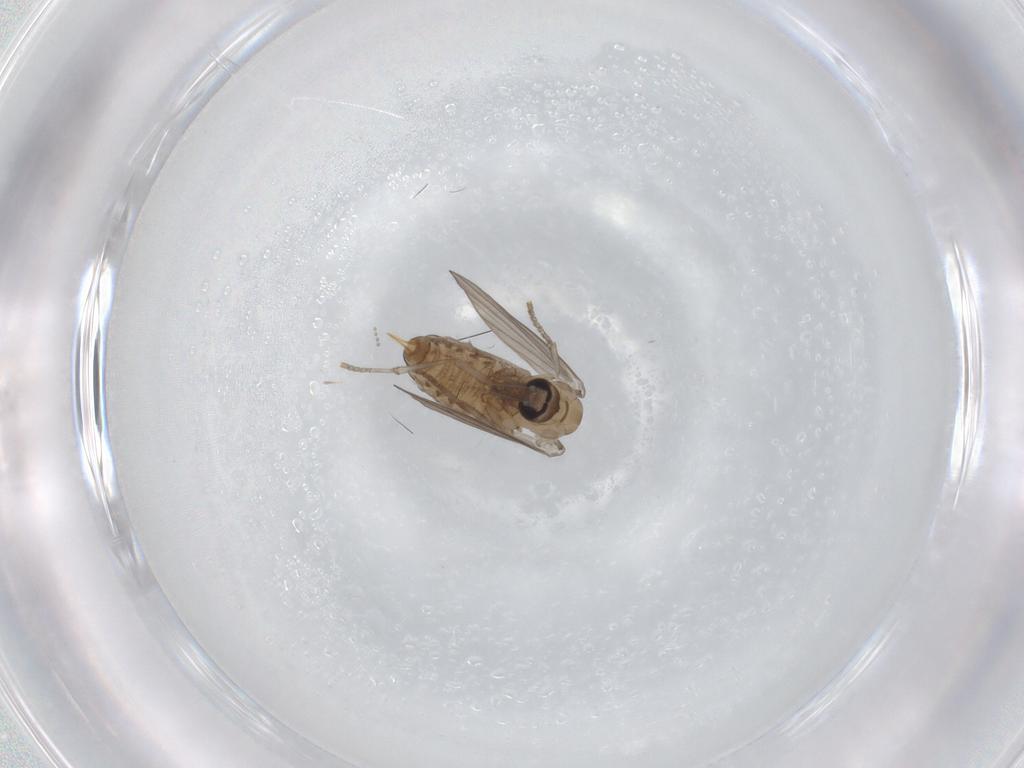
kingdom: Animalia
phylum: Arthropoda
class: Insecta
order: Diptera
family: Psychodidae
